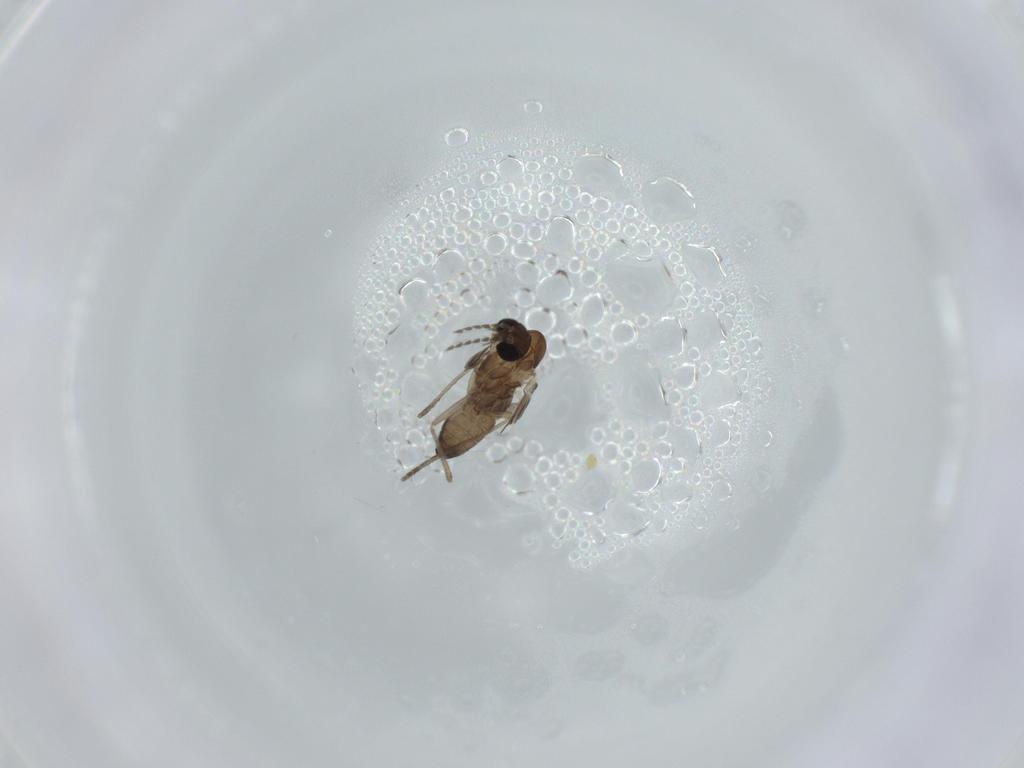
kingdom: Animalia
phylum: Arthropoda
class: Insecta
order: Diptera
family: Psychodidae
